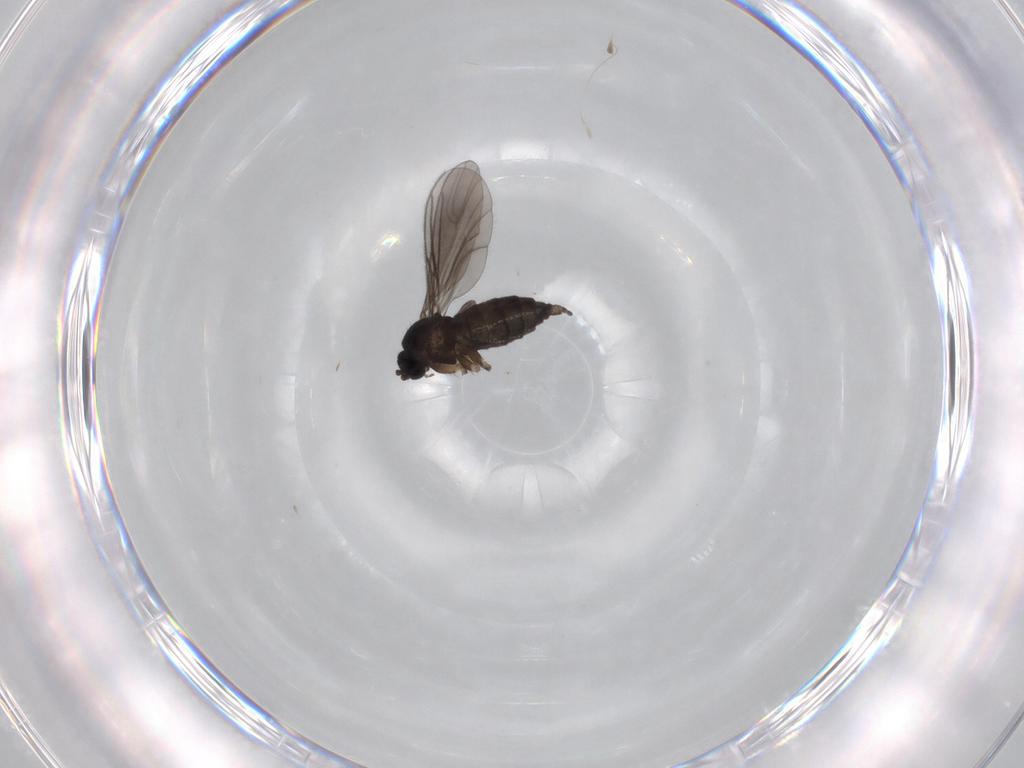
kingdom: Animalia
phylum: Arthropoda
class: Insecta
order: Diptera
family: Sciaridae
